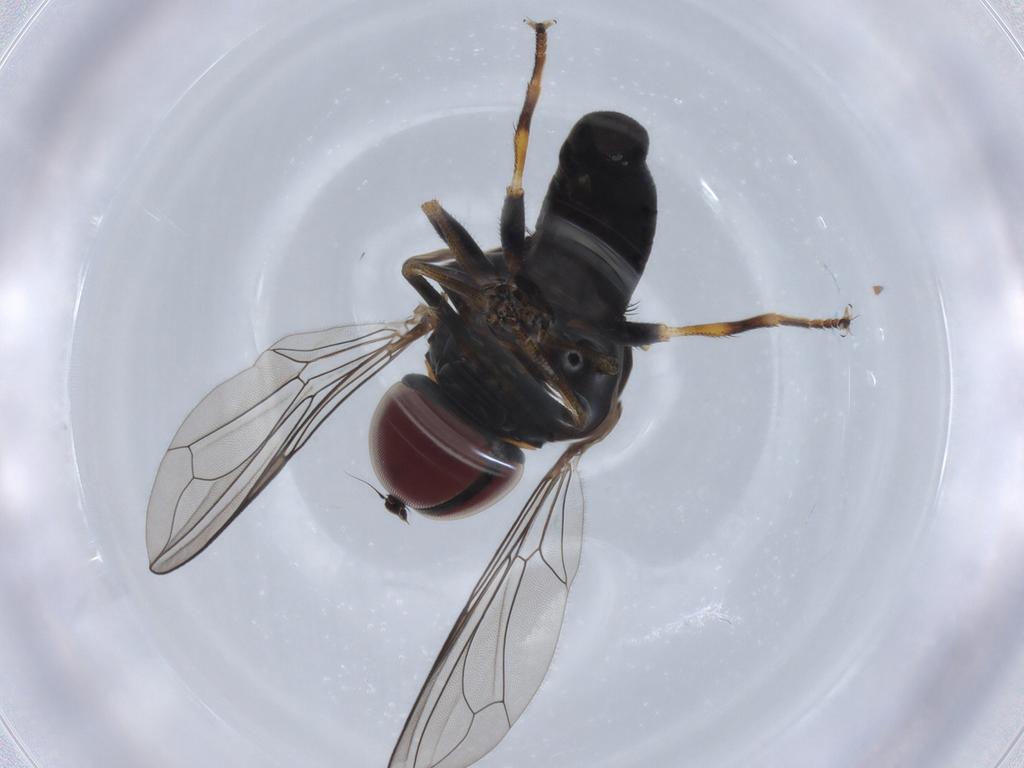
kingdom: Animalia
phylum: Arthropoda
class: Insecta
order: Diptera
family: Pipunculidae
